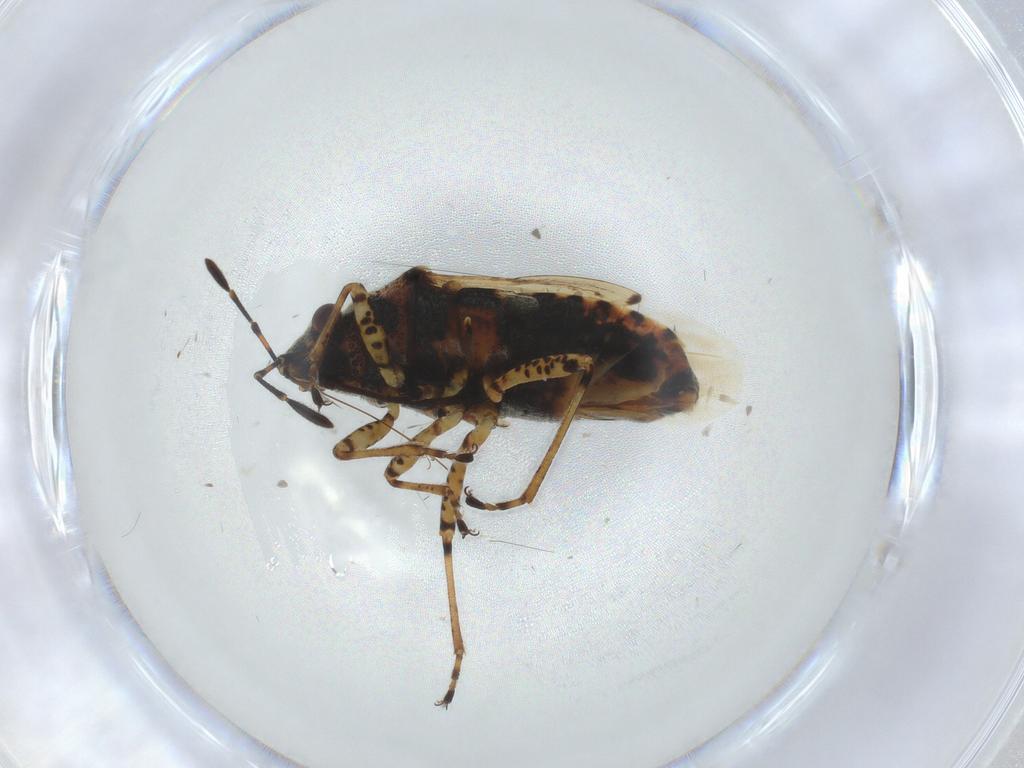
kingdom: Animalia
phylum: Arthropoda
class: Insecta
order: Hemiptera
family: Lygaeidae
